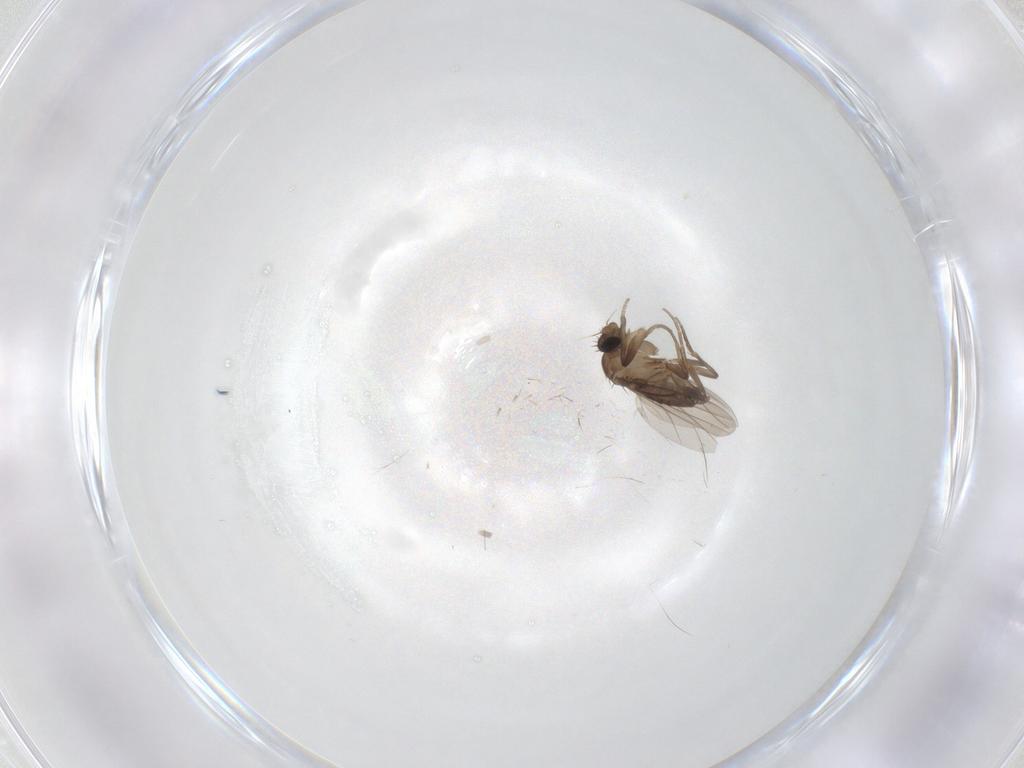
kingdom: Animalia
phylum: Arthropoda
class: Insecta
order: Diptera
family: Phoridae
